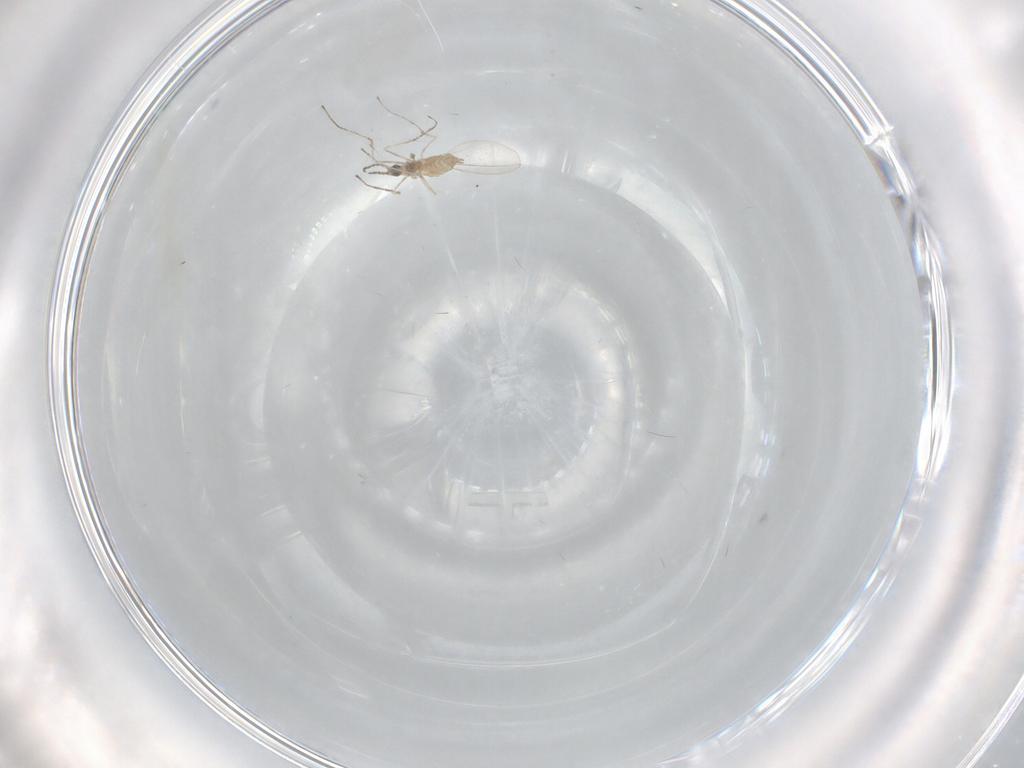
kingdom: Animalia
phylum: Arthropoda
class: Insecta
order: Diptera
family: Cecidomyiidae
